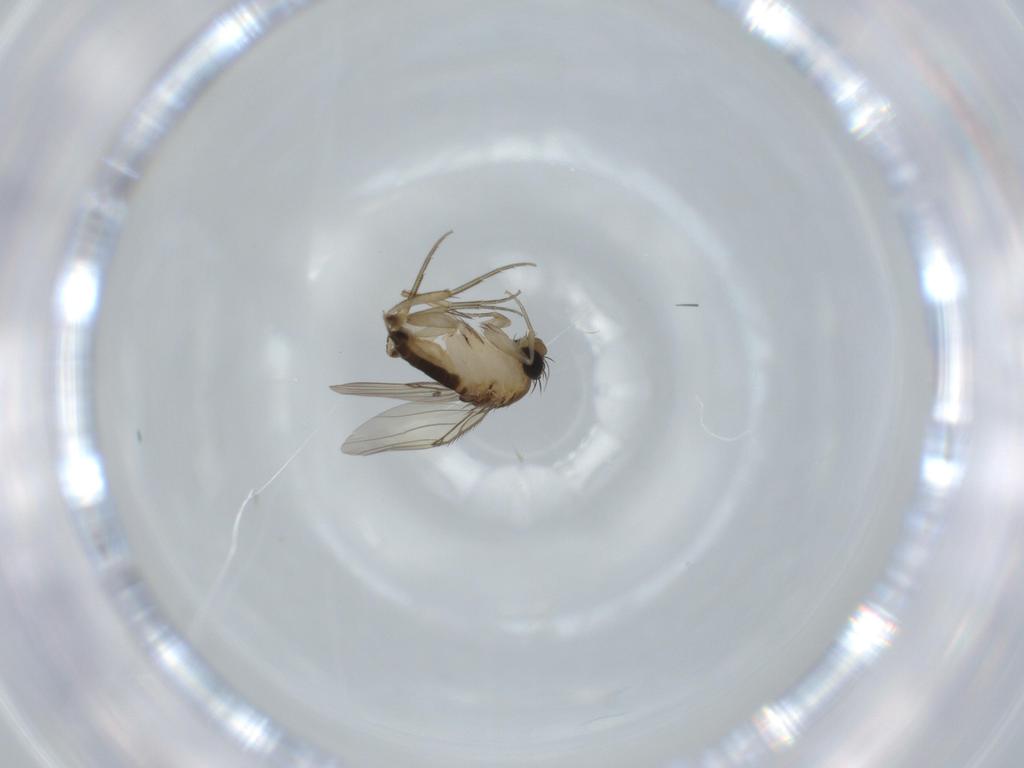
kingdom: Animalia
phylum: Arthropoda
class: Insecta
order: Diptera
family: Phoridae
